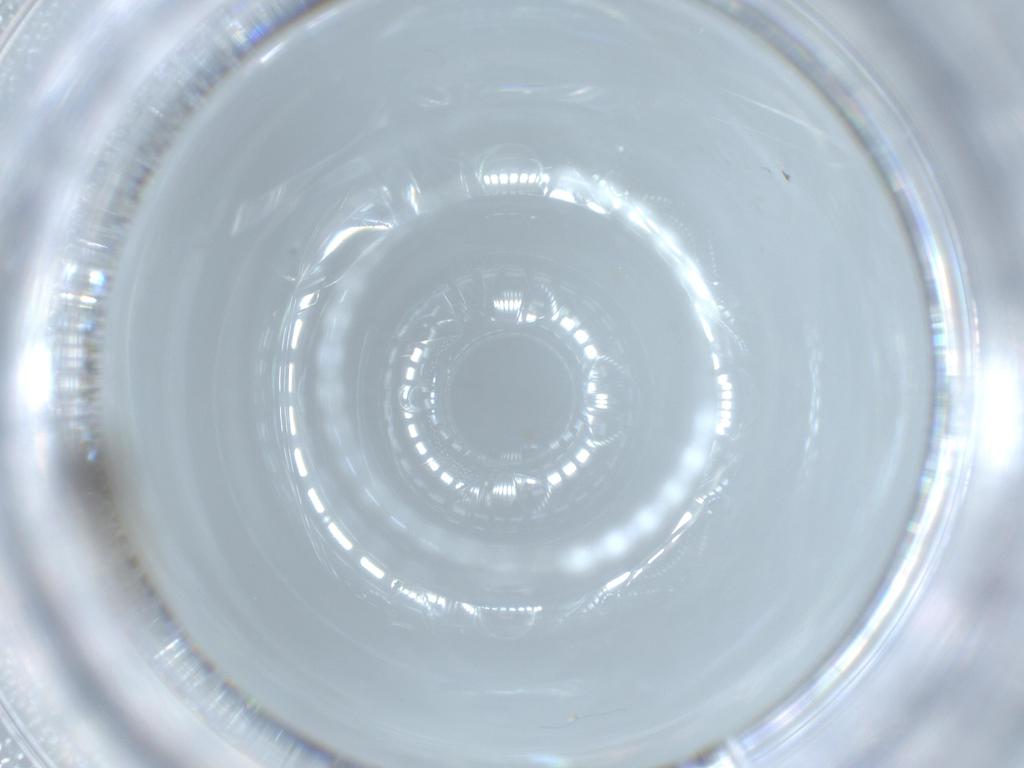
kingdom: Animalia
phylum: Arthropoda
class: Insecta
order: Diptera
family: Chironomidae
